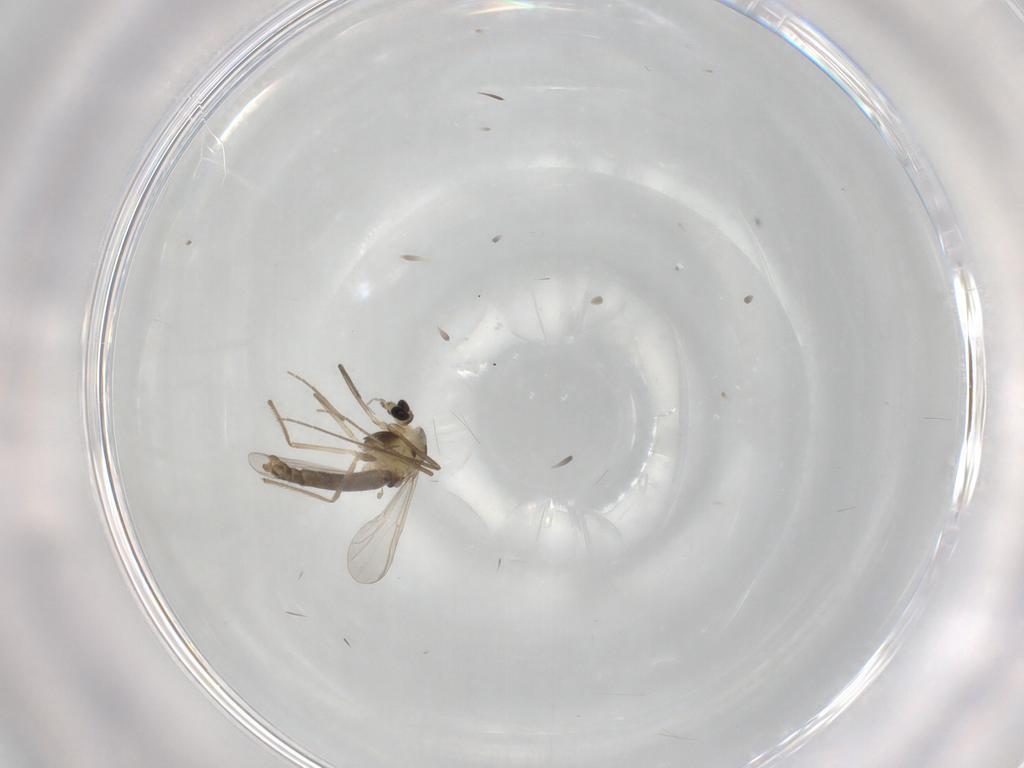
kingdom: Animalia
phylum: Arthropoda
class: Insecta
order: Diptera
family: Chironomidae
